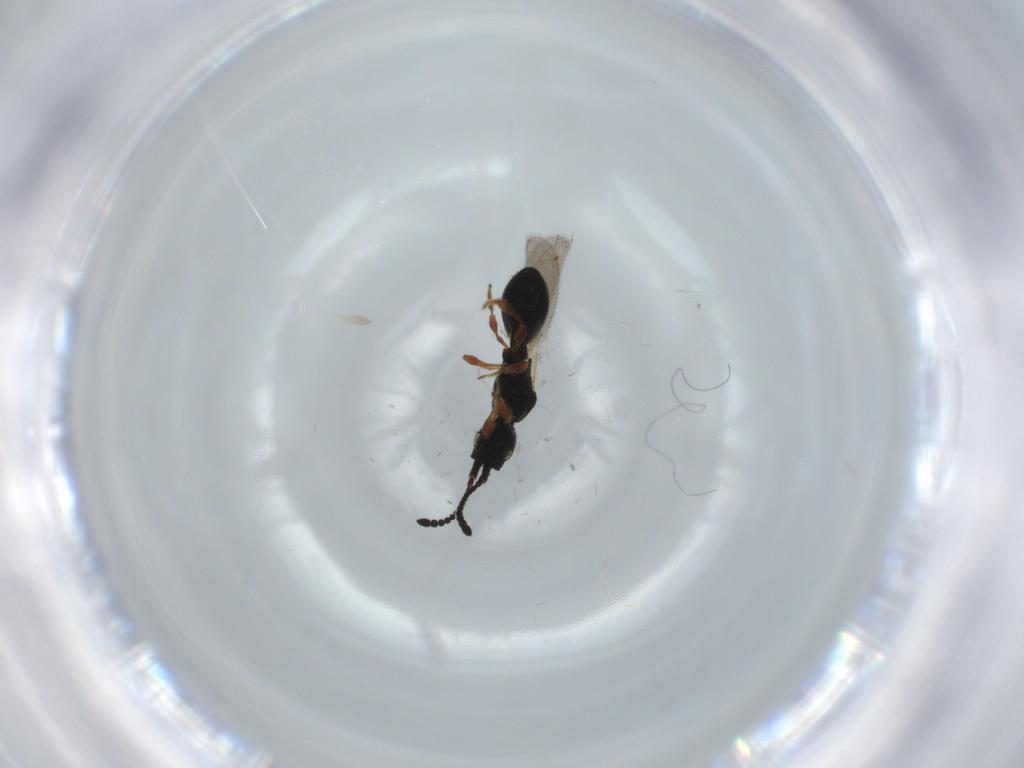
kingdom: Animalia
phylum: Arthropoda
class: Insecta
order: Hymenoptera
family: Diapriidae
